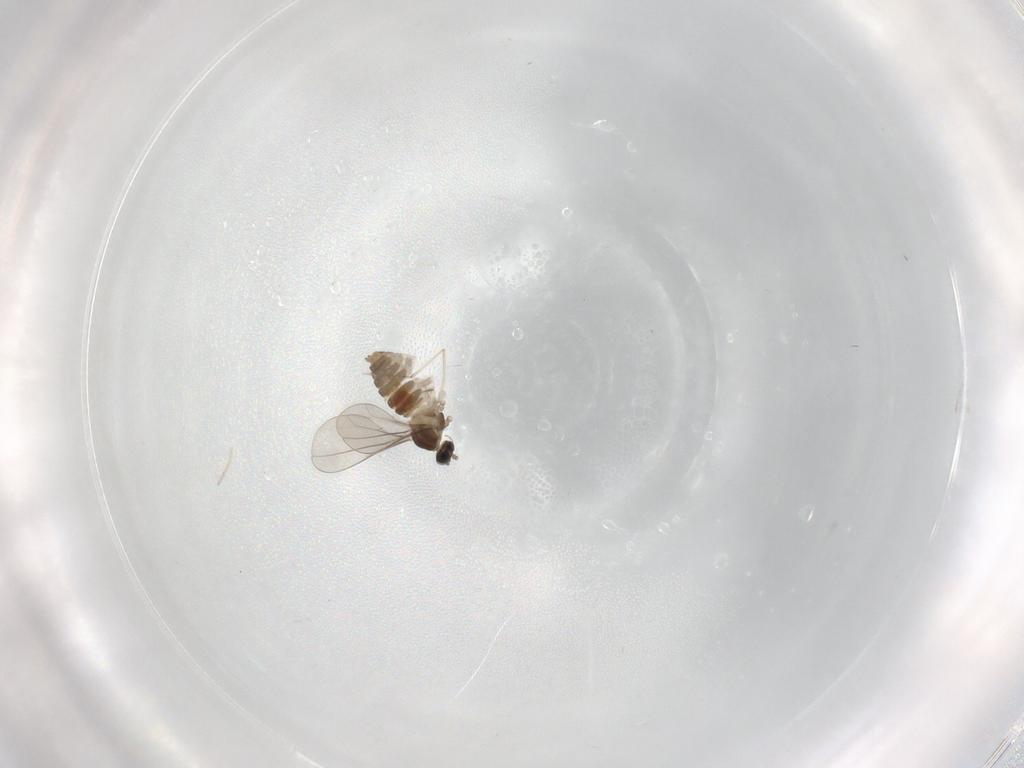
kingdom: Animalia
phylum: Arthropoda
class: Insecta
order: Diptera
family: Cecidomyiidae
